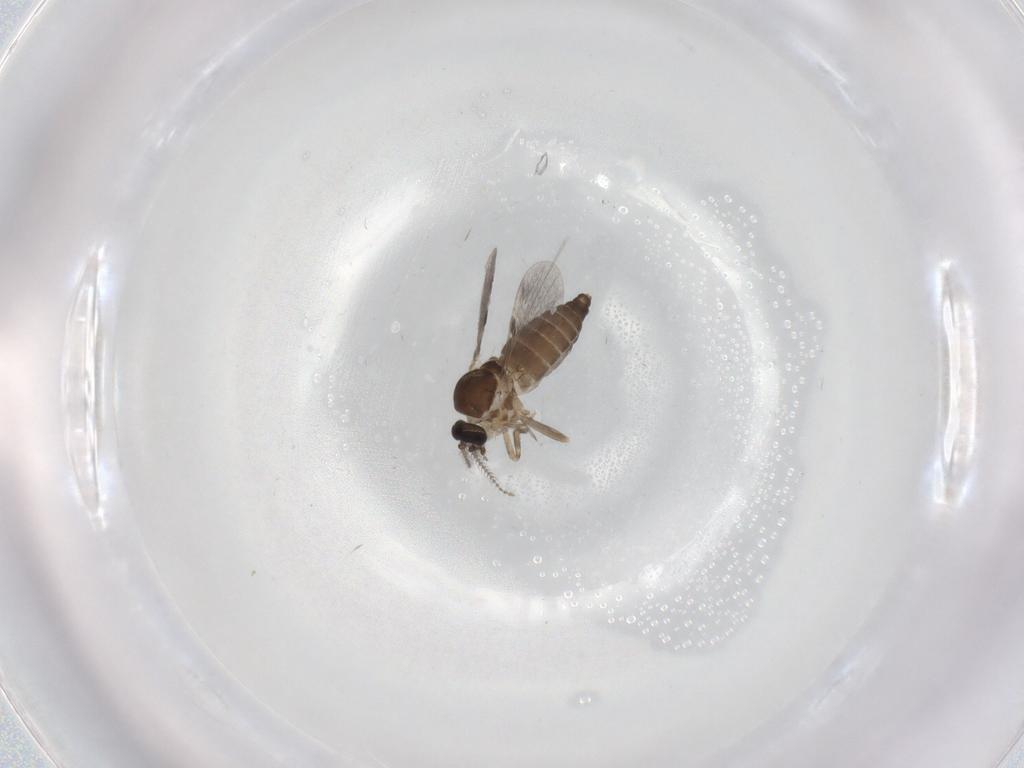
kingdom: Animalia
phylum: Arthropoda
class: Insecta
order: Diptera
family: Ceratopogonidae
